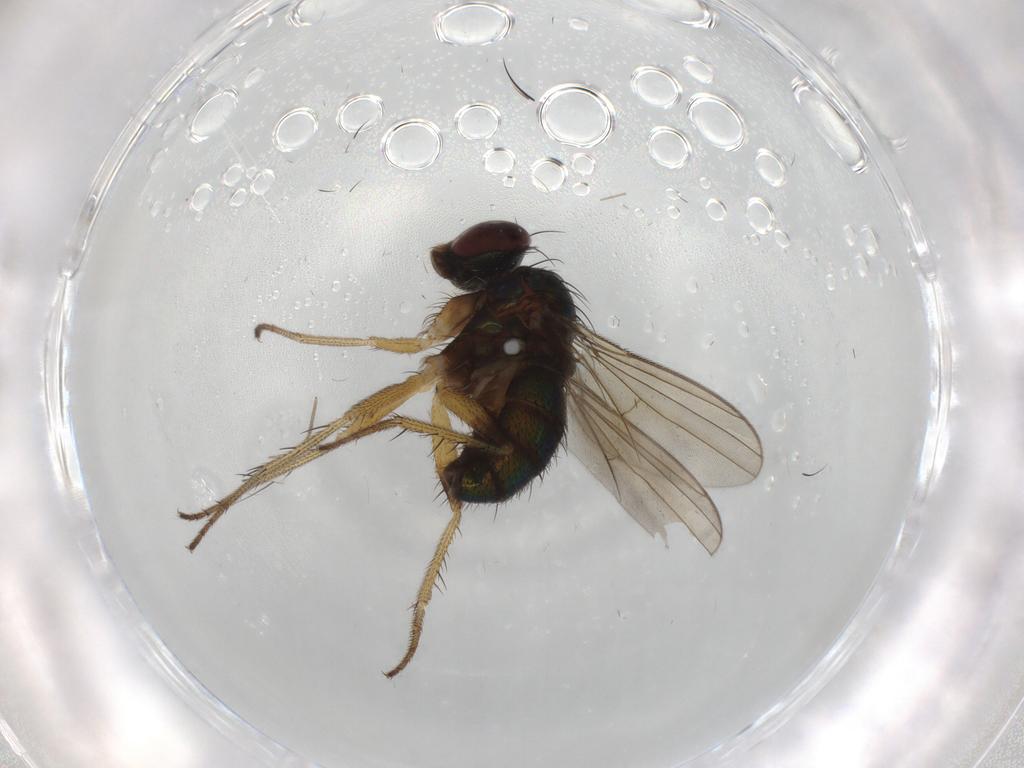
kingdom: Animalia
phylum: Arthropoda
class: Insecta
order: Diptera
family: Dolichopodidae
